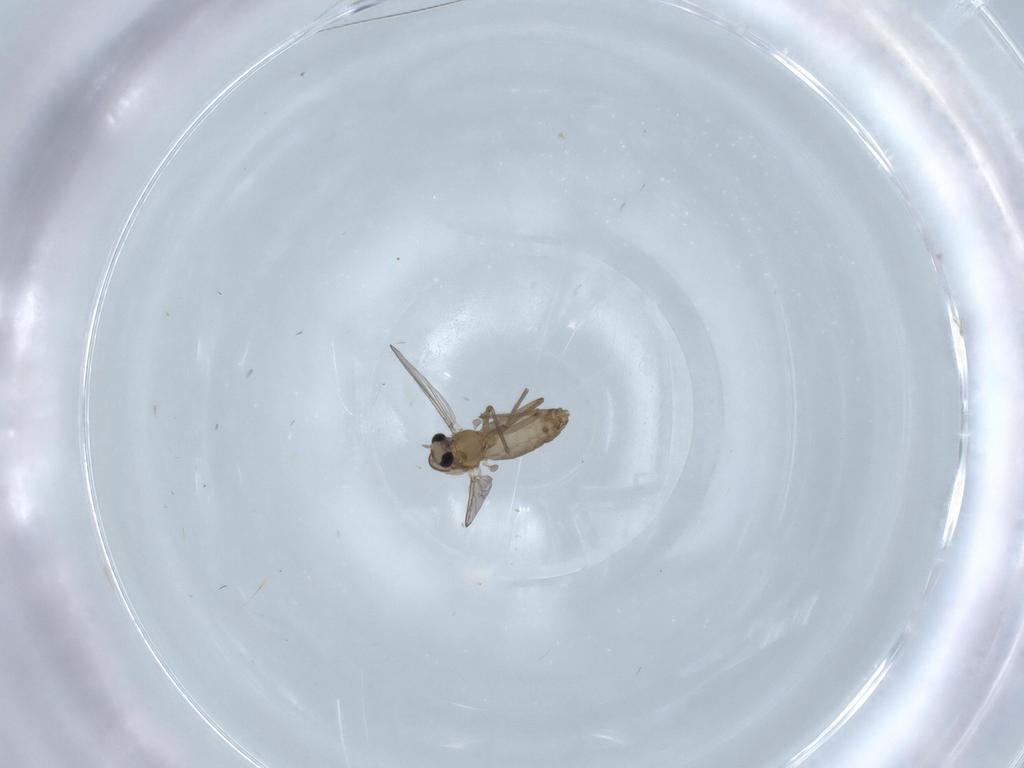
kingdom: Animalia
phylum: Arthropoda
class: Insecta
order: Diptera
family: Chironomidae
